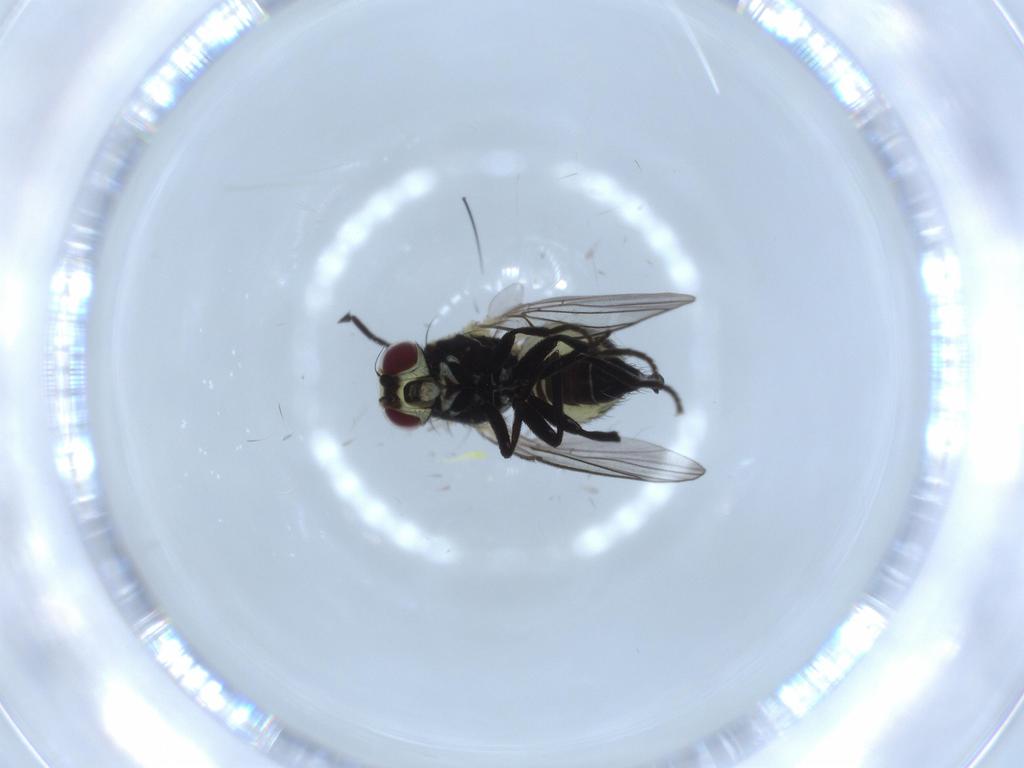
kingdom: Animalia
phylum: Arthropoda
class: Insecta
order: Diptera
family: Agromyzidae
